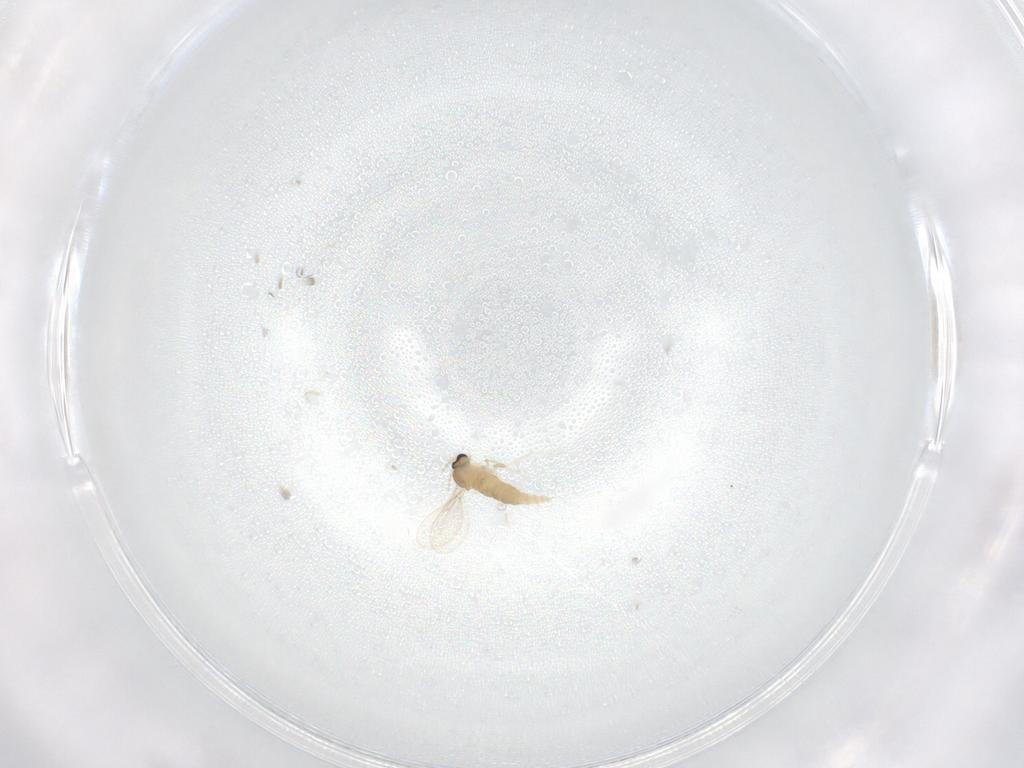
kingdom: Animalia
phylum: Arthropoda
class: Insecta
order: Diptera
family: Cecidomyiidae
